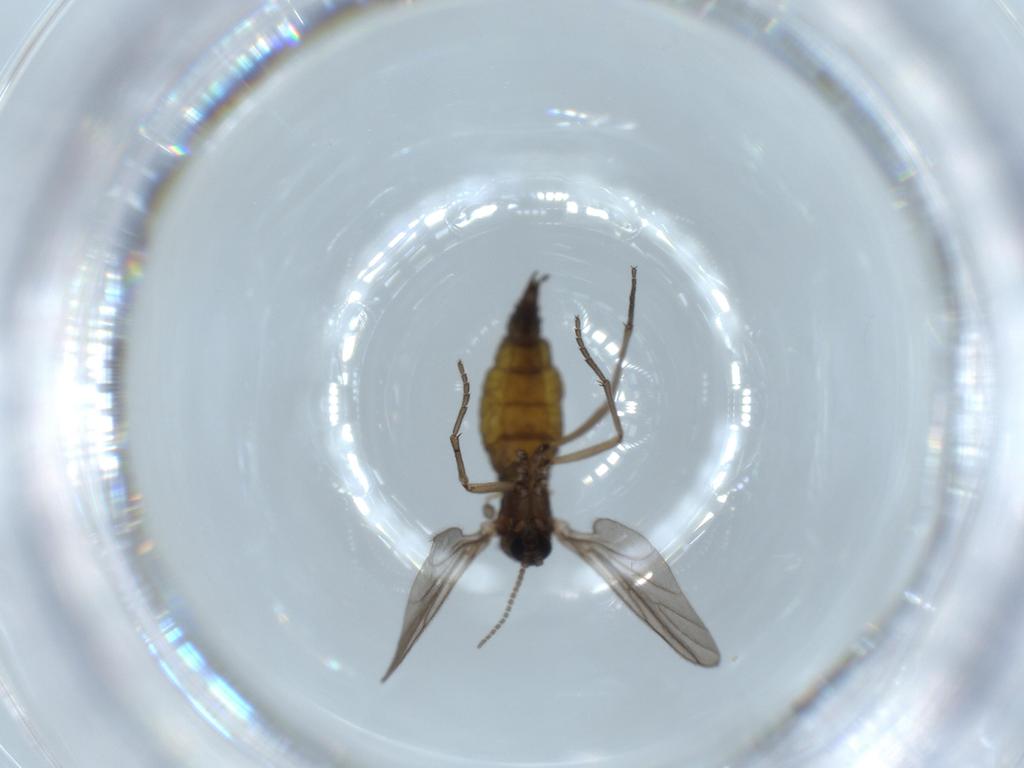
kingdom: Animalia
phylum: Arthropoda
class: Insecta
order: Diptera
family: Sciaridae
